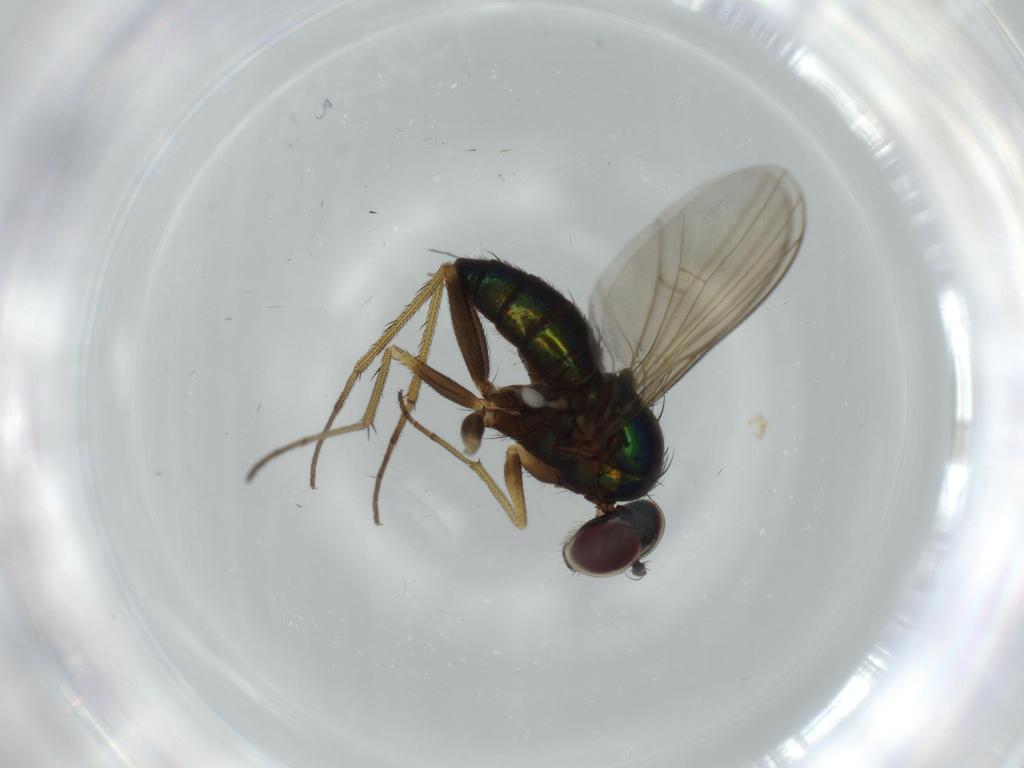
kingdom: Animalia
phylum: Arthropoda
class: Insecta
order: Diptera
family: Dolichopodidae
